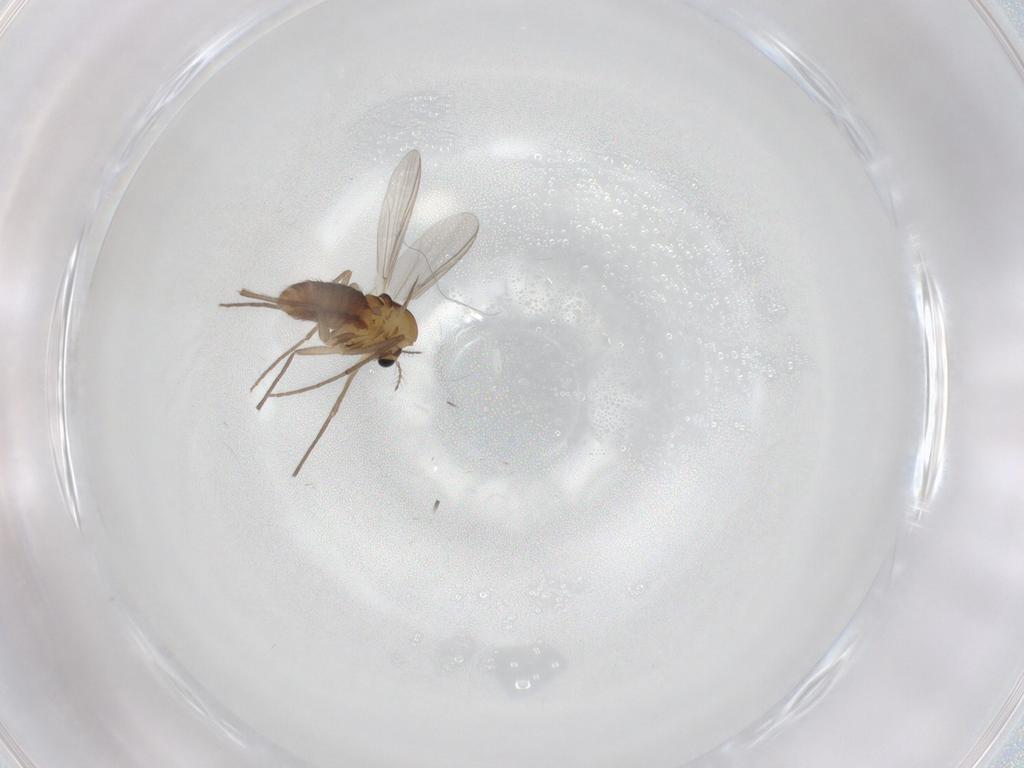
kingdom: Animalia
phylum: Arthropoda
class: Insecta
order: Diptera
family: Chironomidae
